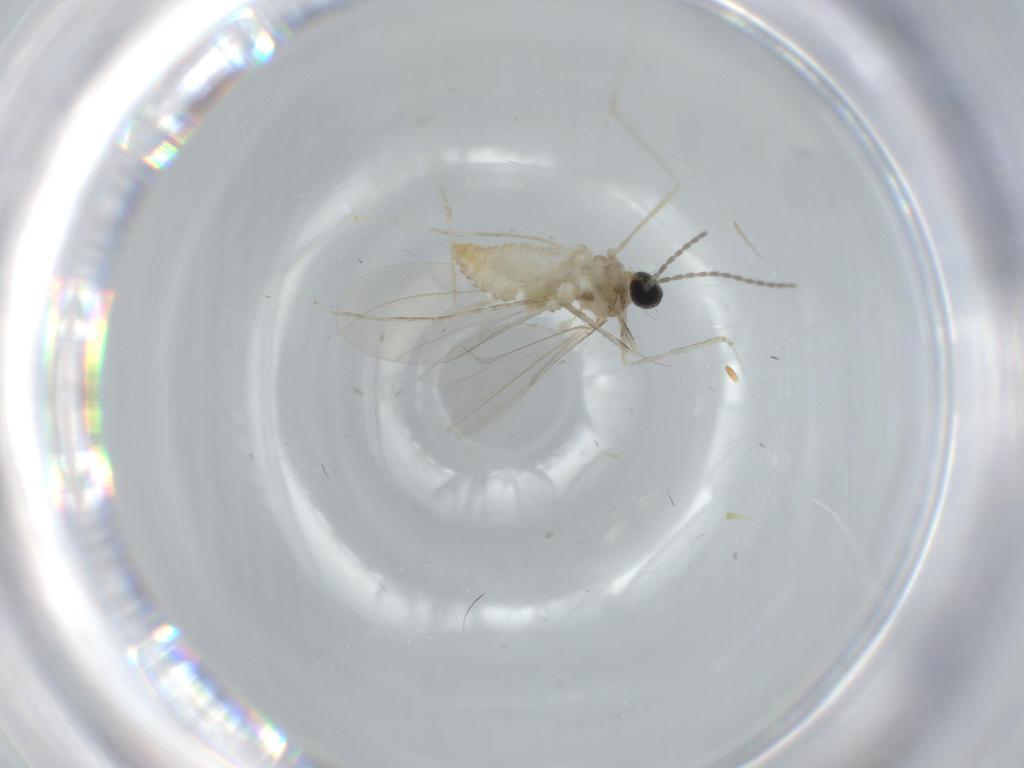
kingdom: Animalia
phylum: Arthropoda
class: Insecta
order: Diptera
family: Cecidomyiidae
